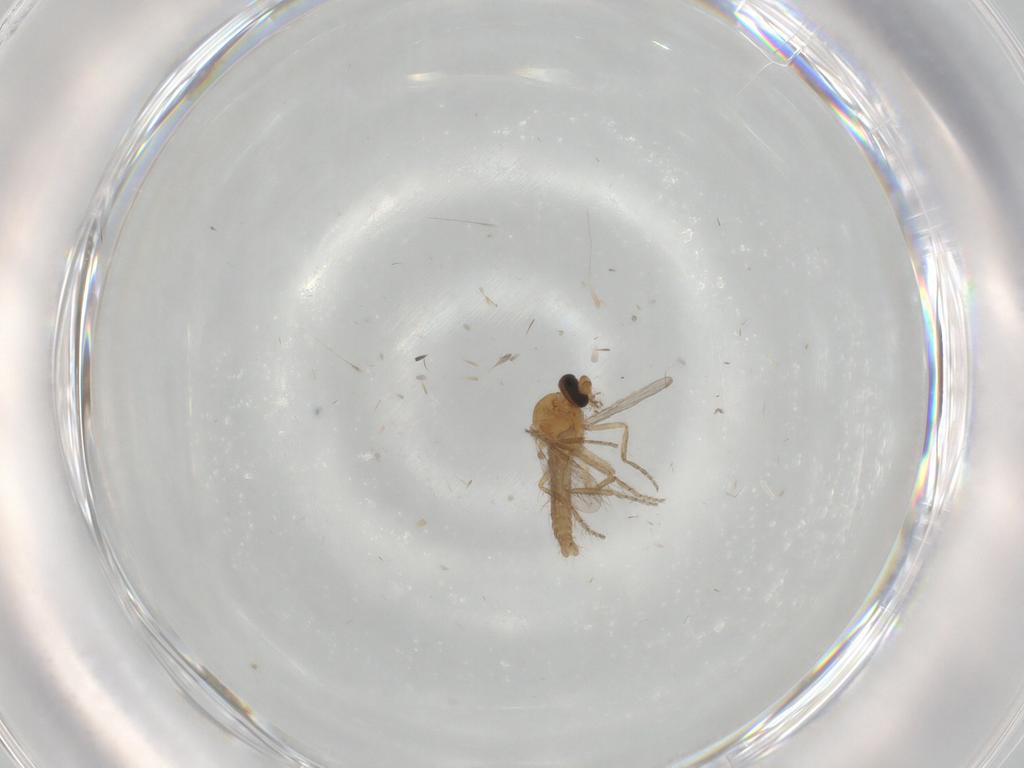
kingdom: Animalia
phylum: Arthropoda
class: Insecta
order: Diptera
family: Ceratopogonidae
